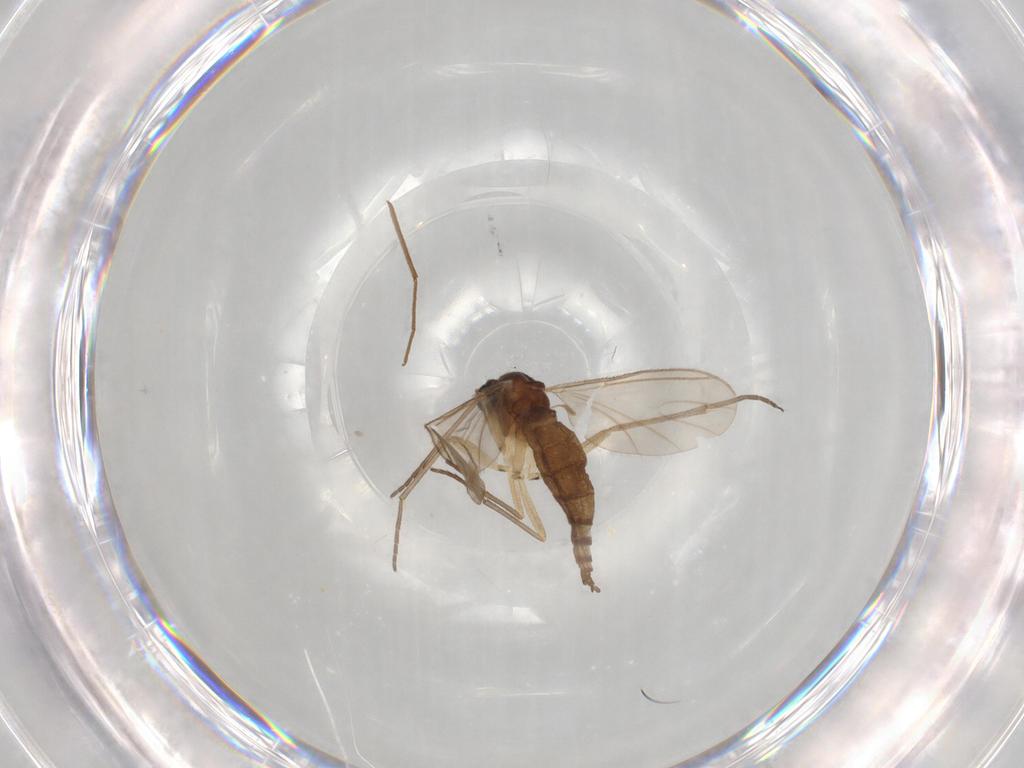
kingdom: Animalia
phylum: Arthropoda
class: Insecta
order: Diptera
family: Sciaridae
